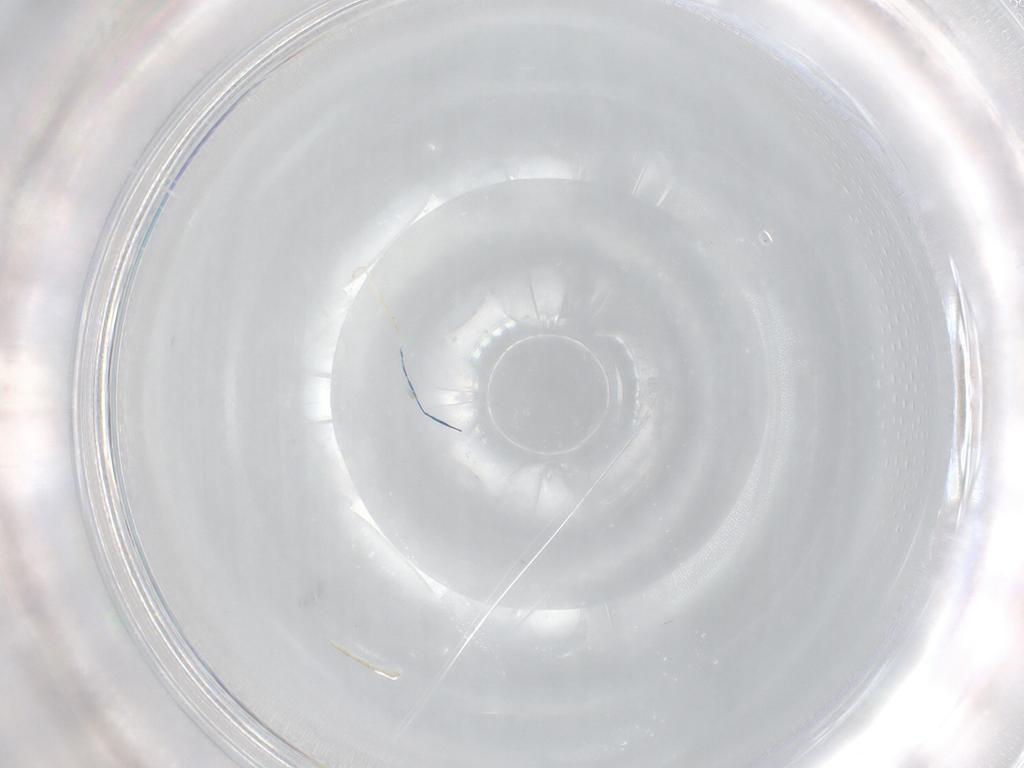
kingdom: Animalia
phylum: Arthropoda
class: Insecta
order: Diptera
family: Cecidomyiidae
